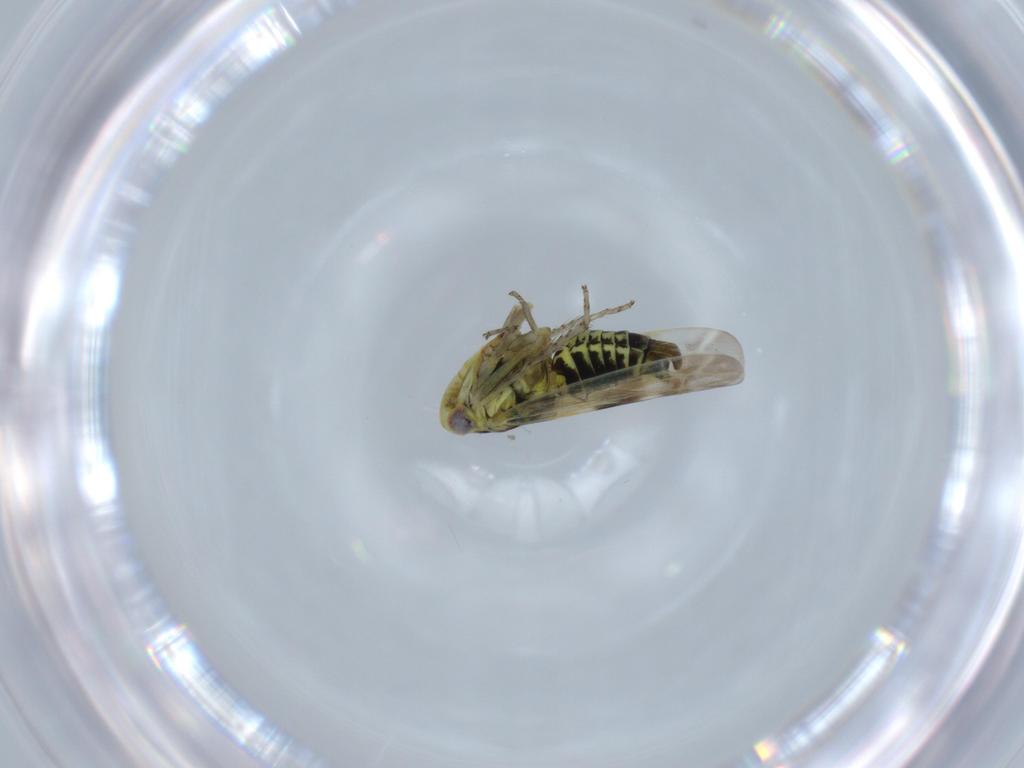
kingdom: Animalia
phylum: Arthropoda
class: Insecta
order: Hemiptera
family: Cicadellidae
